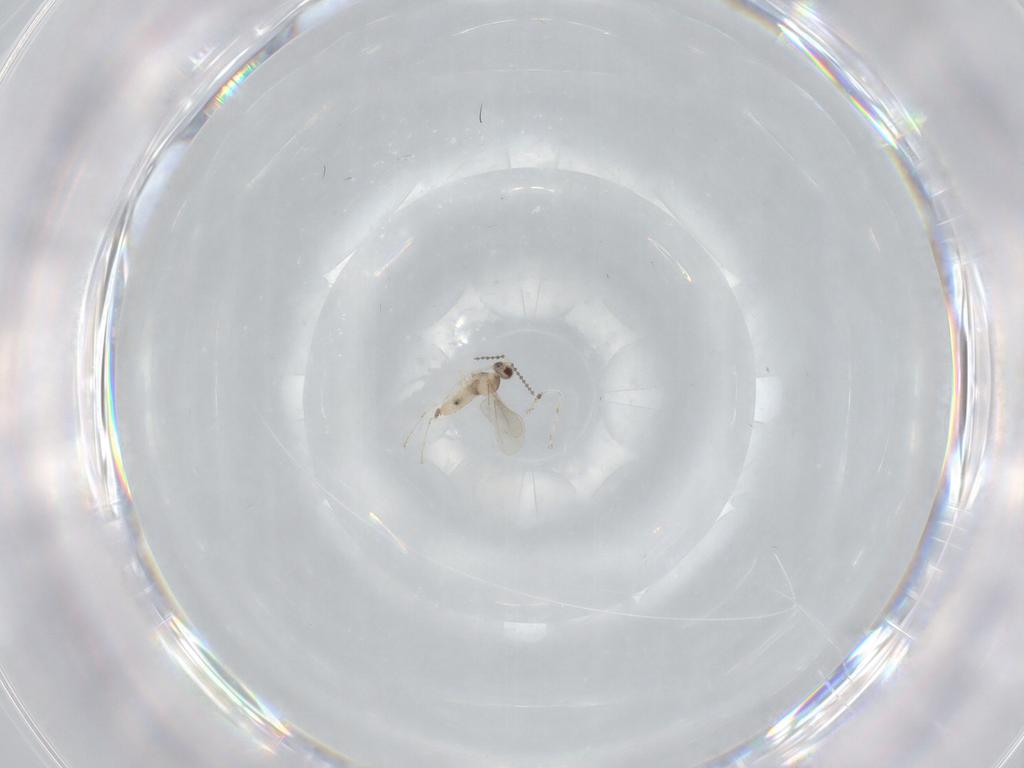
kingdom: Animalia
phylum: Arthropoda
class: Insecta
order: Diptera
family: Cecidomyiidae
